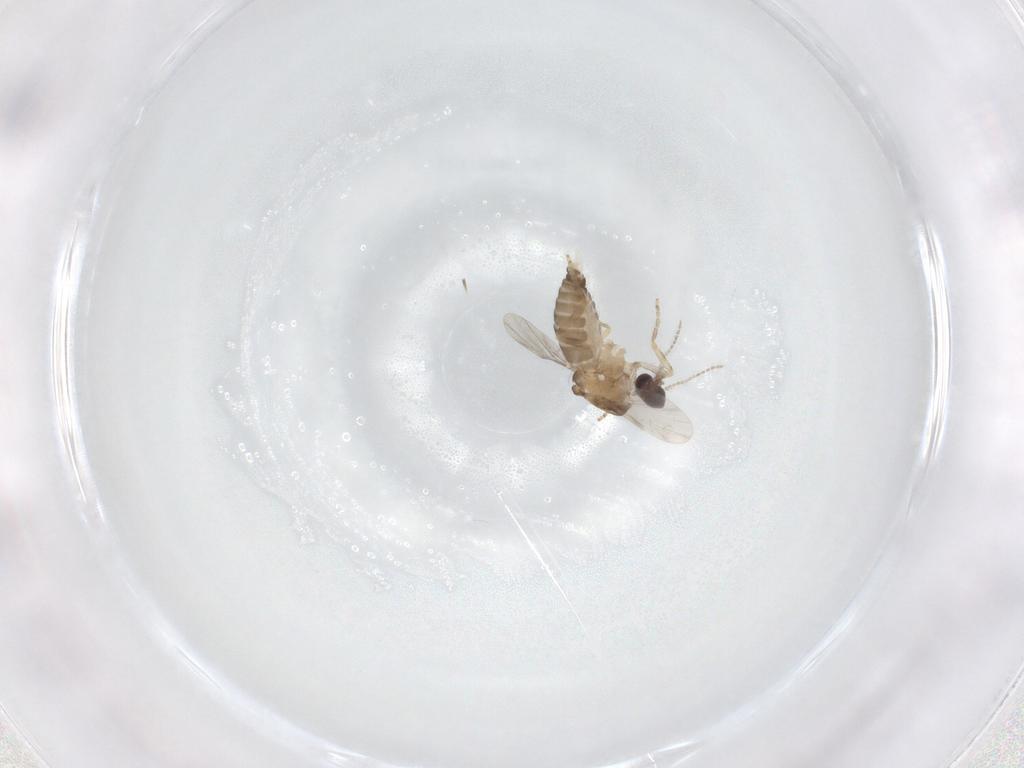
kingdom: Animalia
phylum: Arthropoda
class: Insecta
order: Diptera
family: Ceratopogonidae
